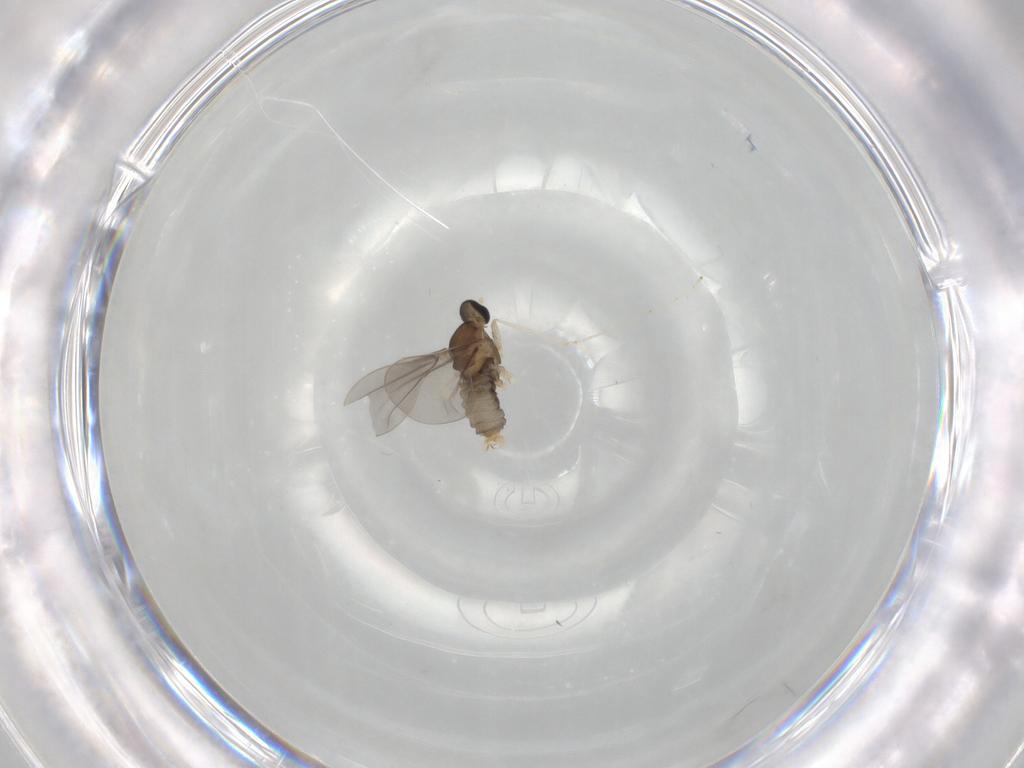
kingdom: Animalia
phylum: Arthropoda
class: Insecta
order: Diptera
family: Cecidomyiidae
